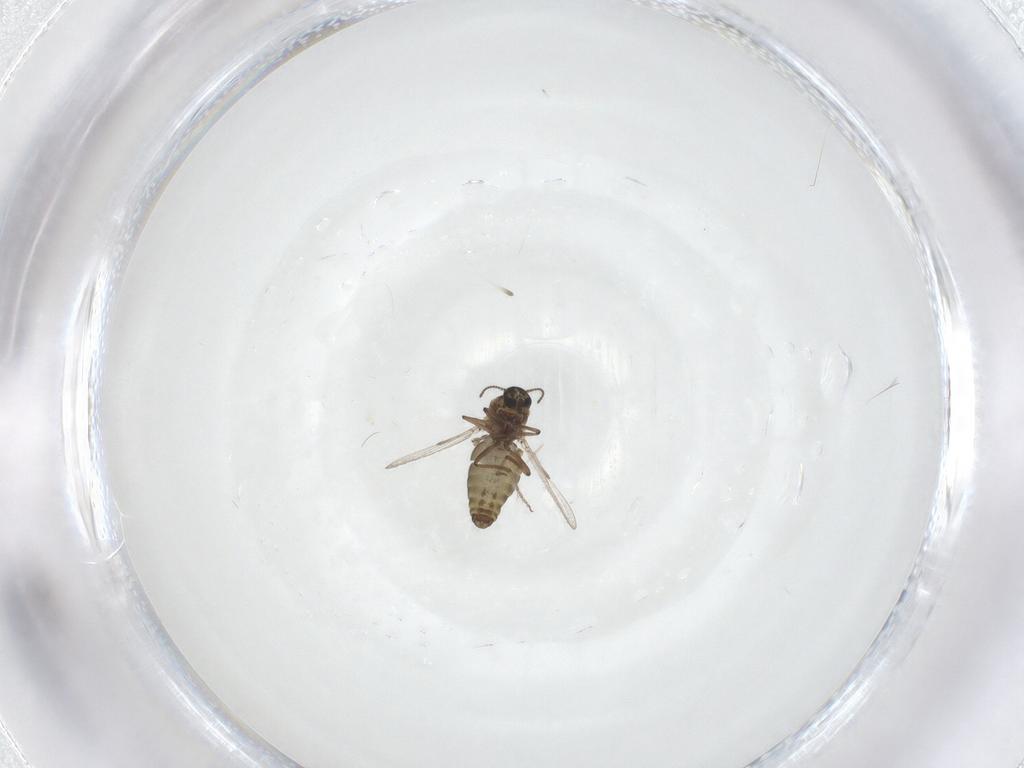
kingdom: Animalia
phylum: Arthropoda
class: Insecta
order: Diptera
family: Ceratopogonidae
